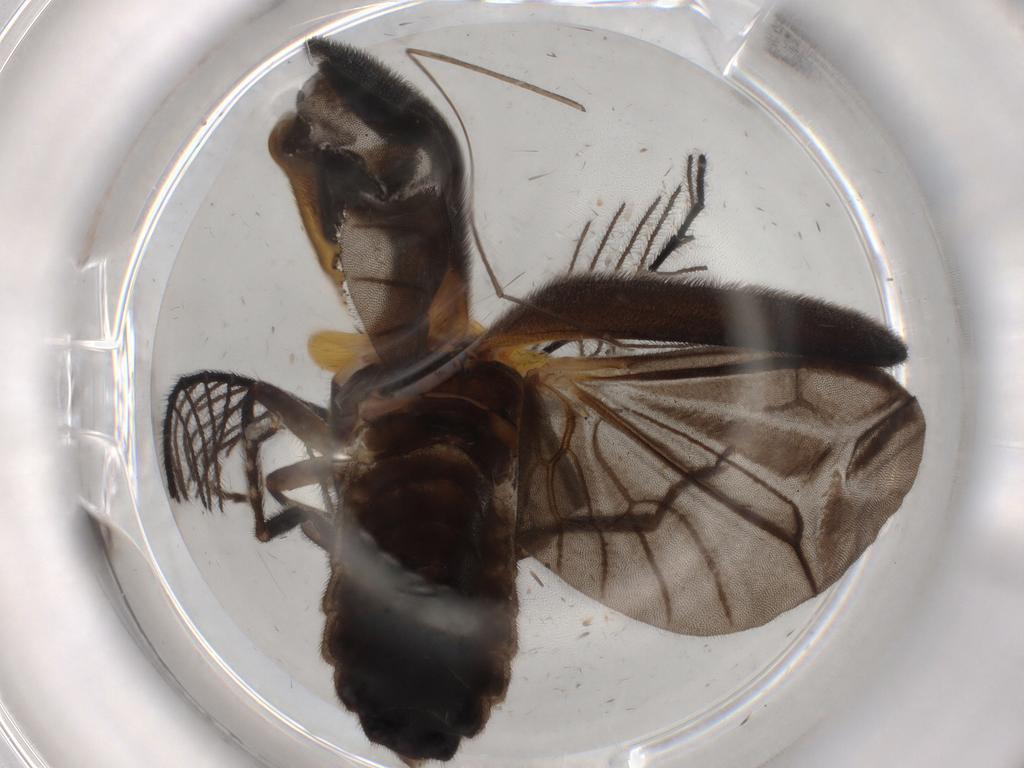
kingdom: Animalia
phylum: Arthropoda
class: Insecta
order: Coleoptera
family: Lampyridae
